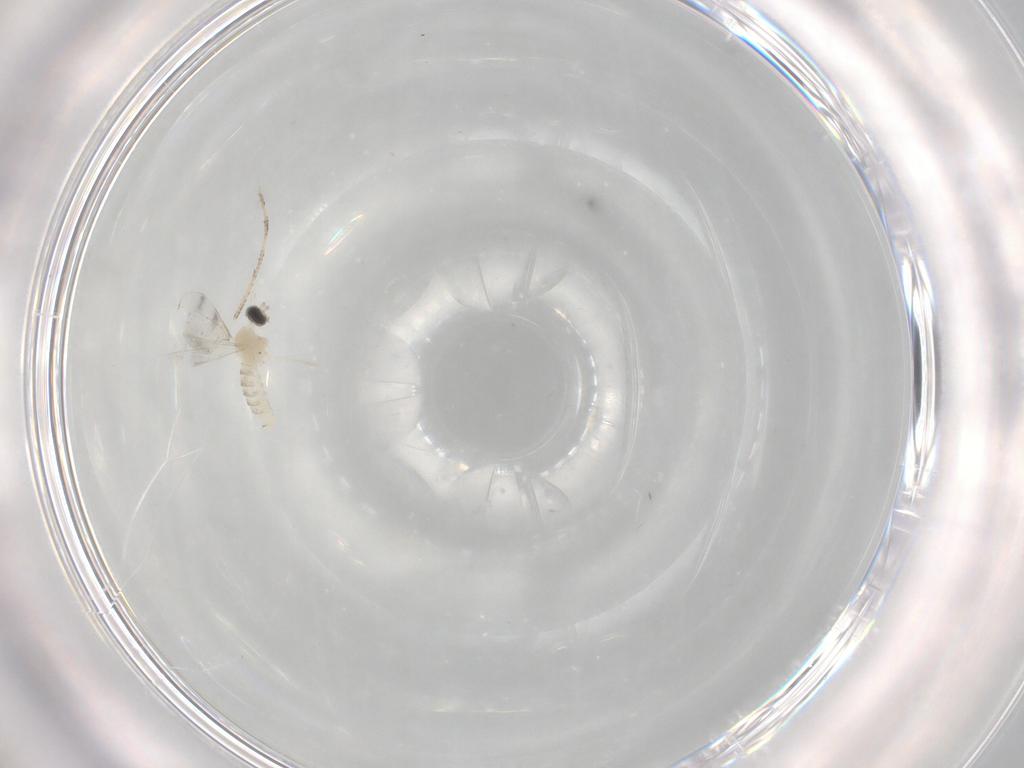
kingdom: Animalia
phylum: Arthropoda
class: Insecta
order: Diptera
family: Cecidomyiidae
